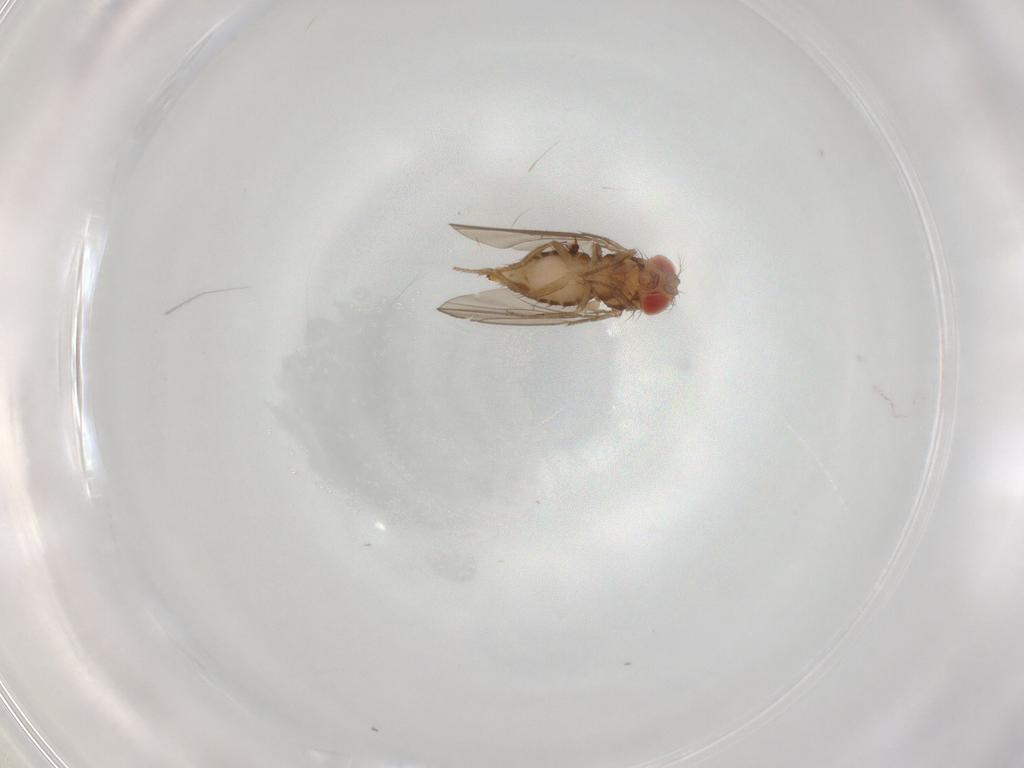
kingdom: Animalia
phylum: Arthropoda
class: Insecta
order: Diptera
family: Ephydridae
